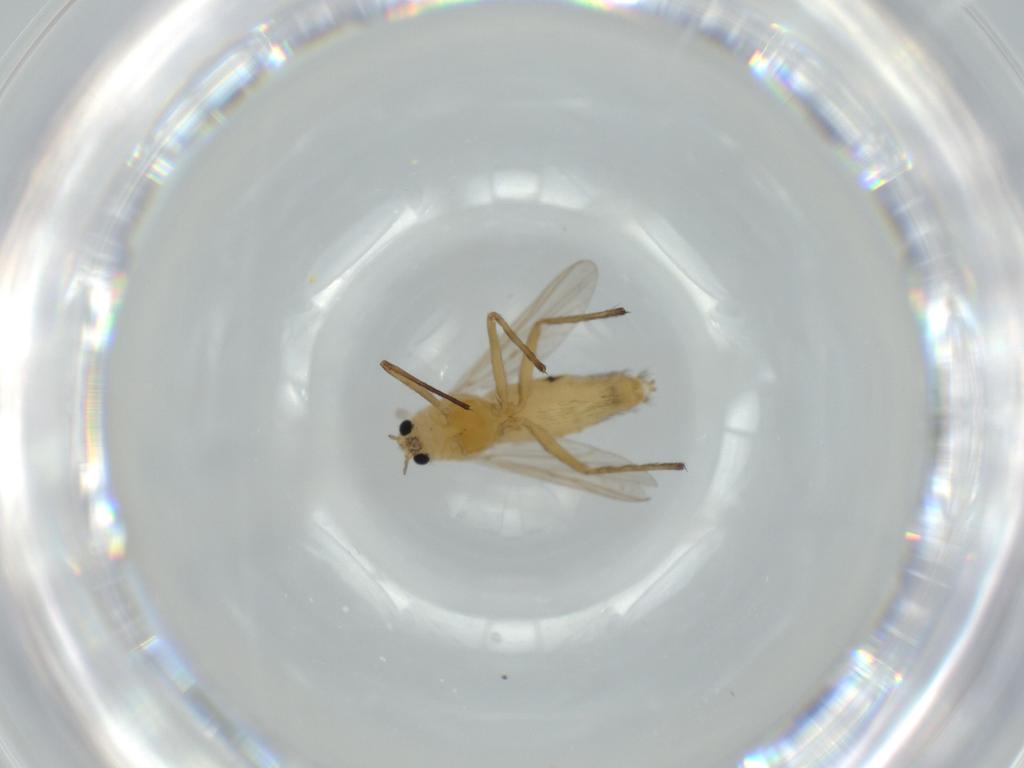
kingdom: Animalia
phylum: Arthropoda
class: Insecta
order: Diptera
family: Chironomidae
